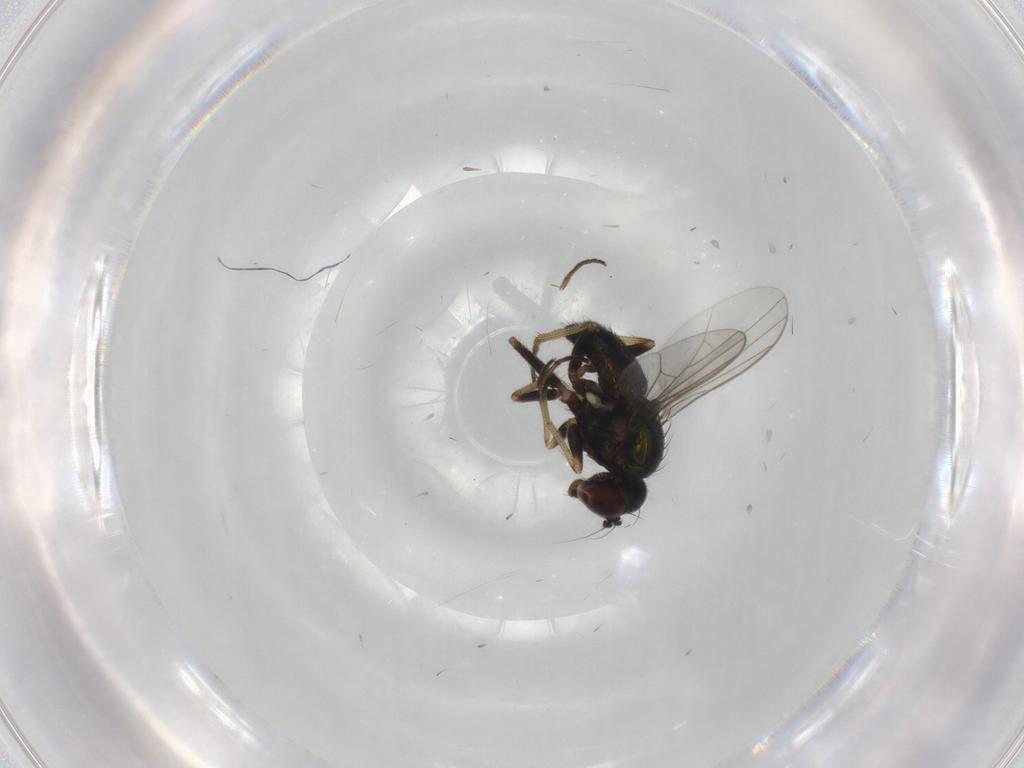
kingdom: Animalia
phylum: Arthropoda
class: Insecta
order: Diptera
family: Dolichopodidae
